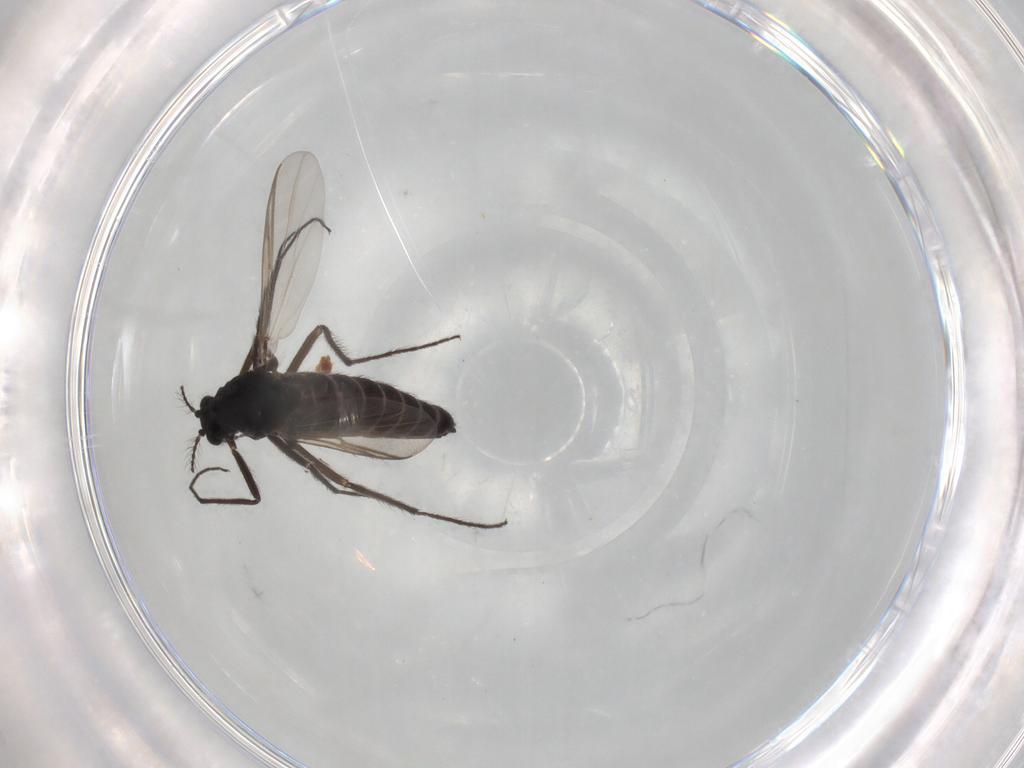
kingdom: Animalia
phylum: Arthropoda
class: Insecta
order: Diptera
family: Chironomidae
